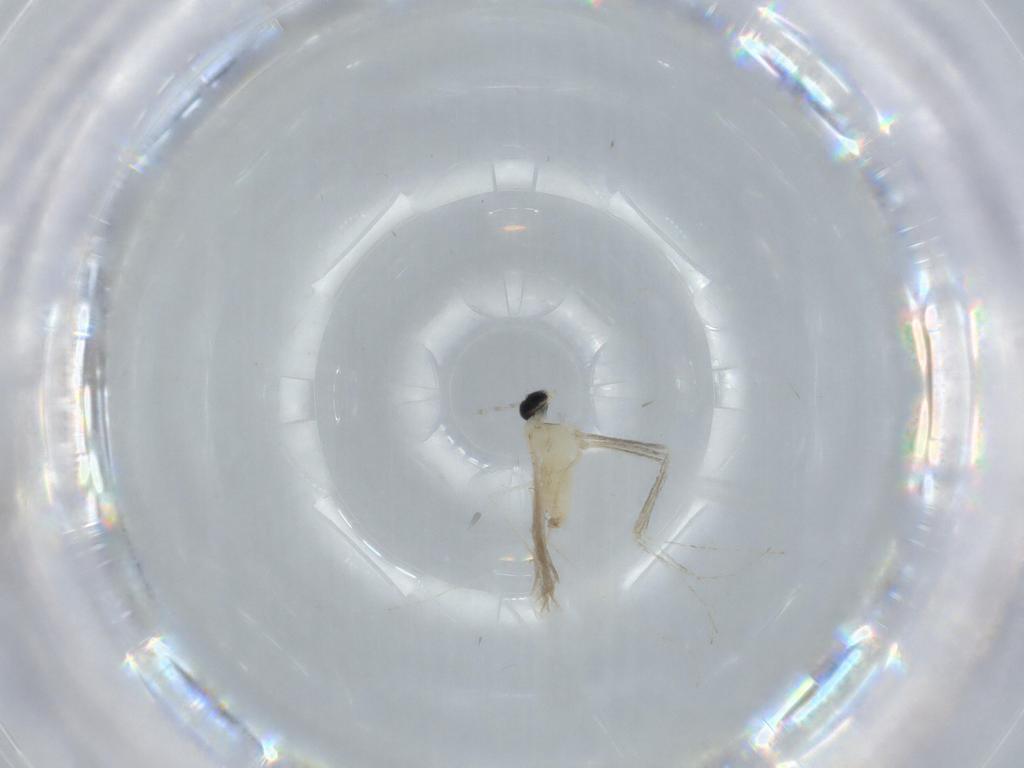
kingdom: Animalia
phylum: Arthropoda
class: Insecta
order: Diptera
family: Cecidomyiidae
